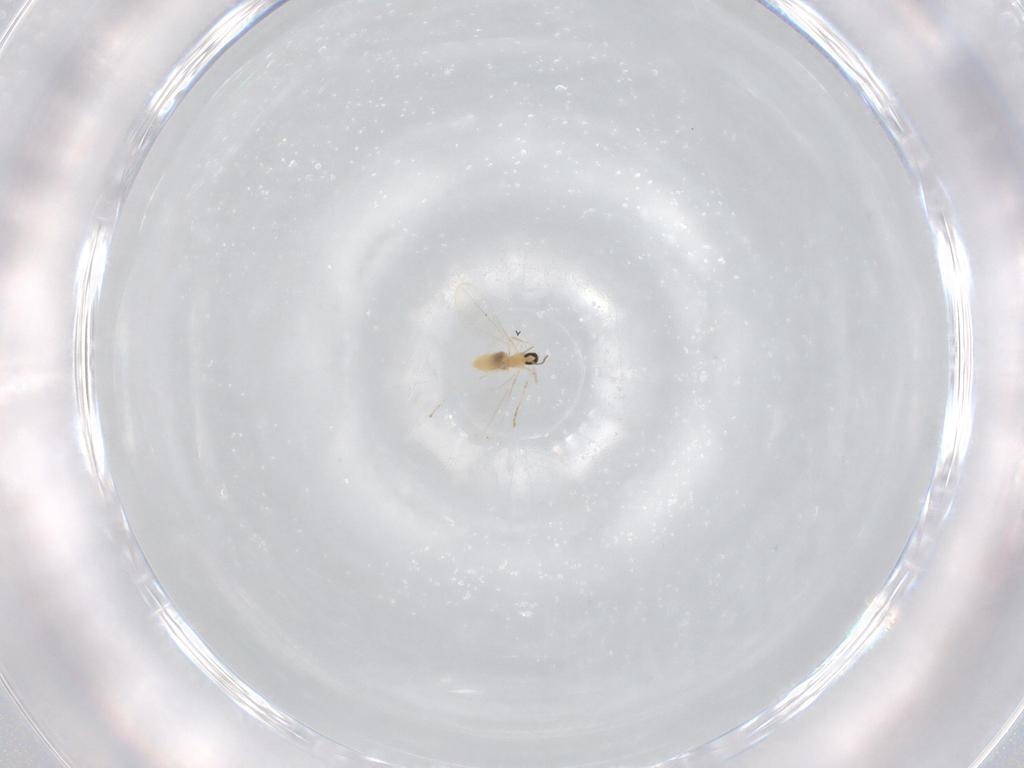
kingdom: Animalia
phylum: Arthropoda
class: Insecta
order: Diptera
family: Cecidomyiidae
